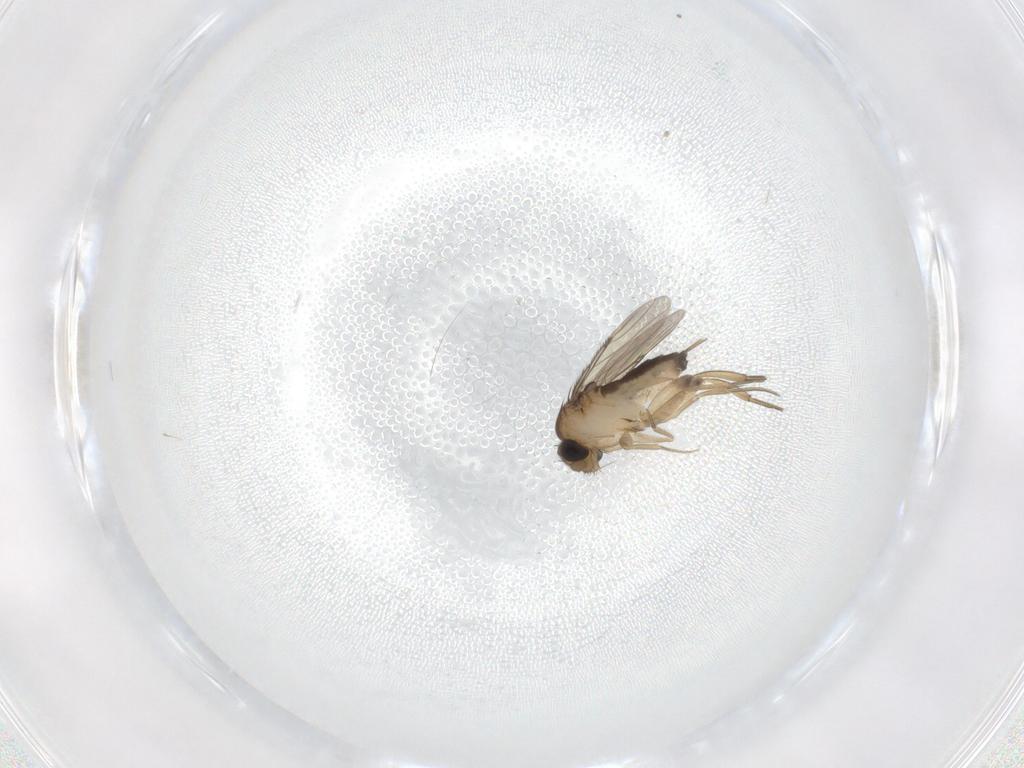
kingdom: Animalia
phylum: Arthropoda
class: Insecta
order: Diptera
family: Phoridae
